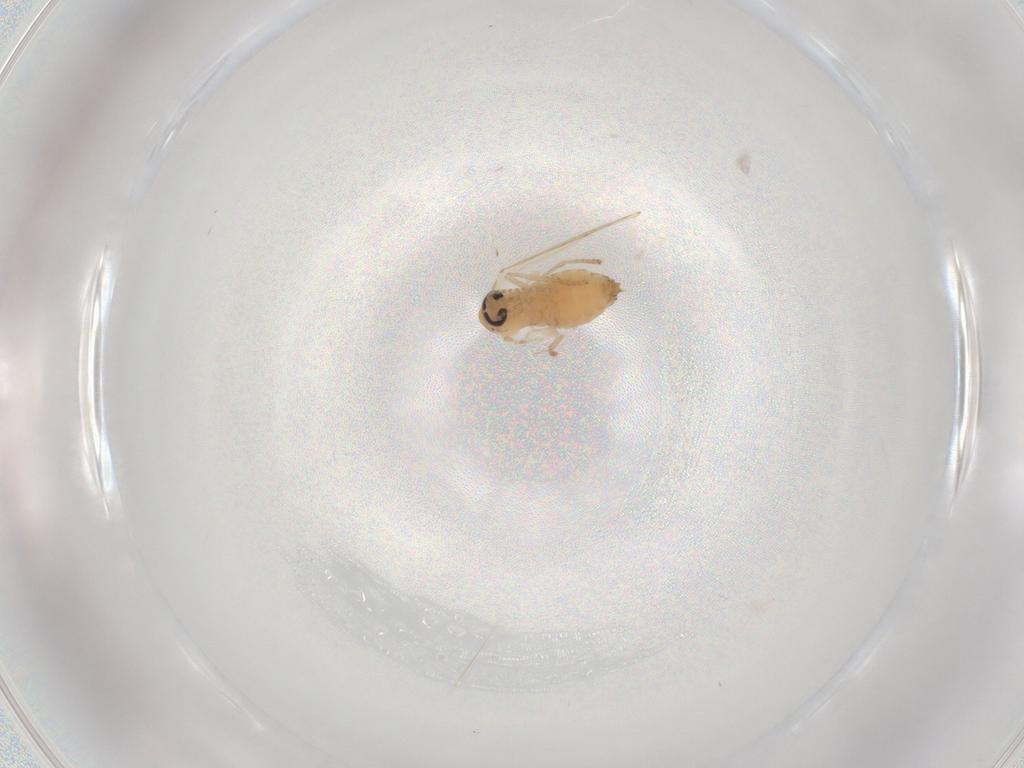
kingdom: Animalia
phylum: Arthropoda
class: Insecta
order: Diptera
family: Psychodidae
